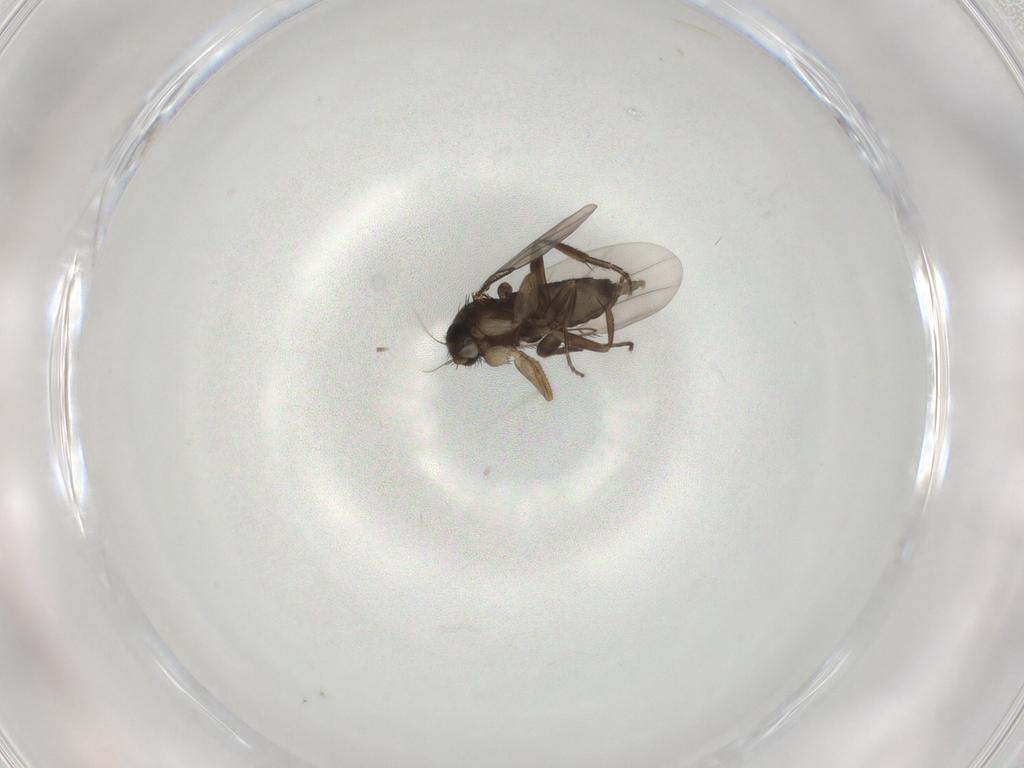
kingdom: Animalia
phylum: Arthropoda
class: Insecta
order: Diptera
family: Phoridae
